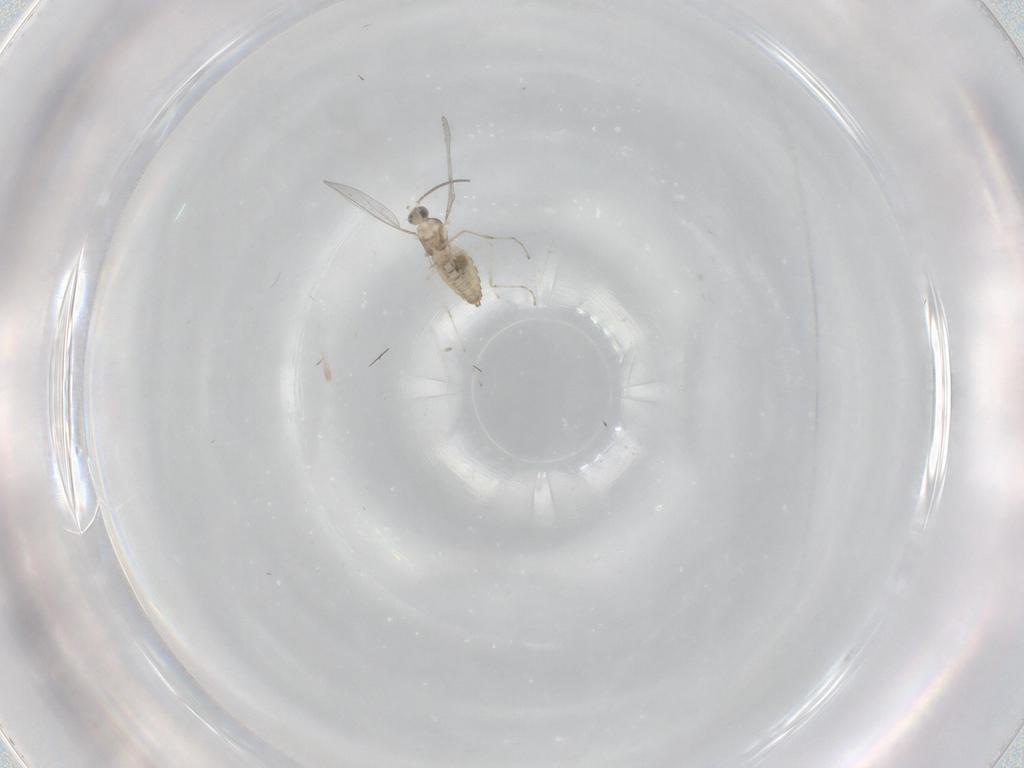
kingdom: Animalia
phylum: Arthropoda
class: Insecta
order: Diptera
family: Cecidomyiidae
